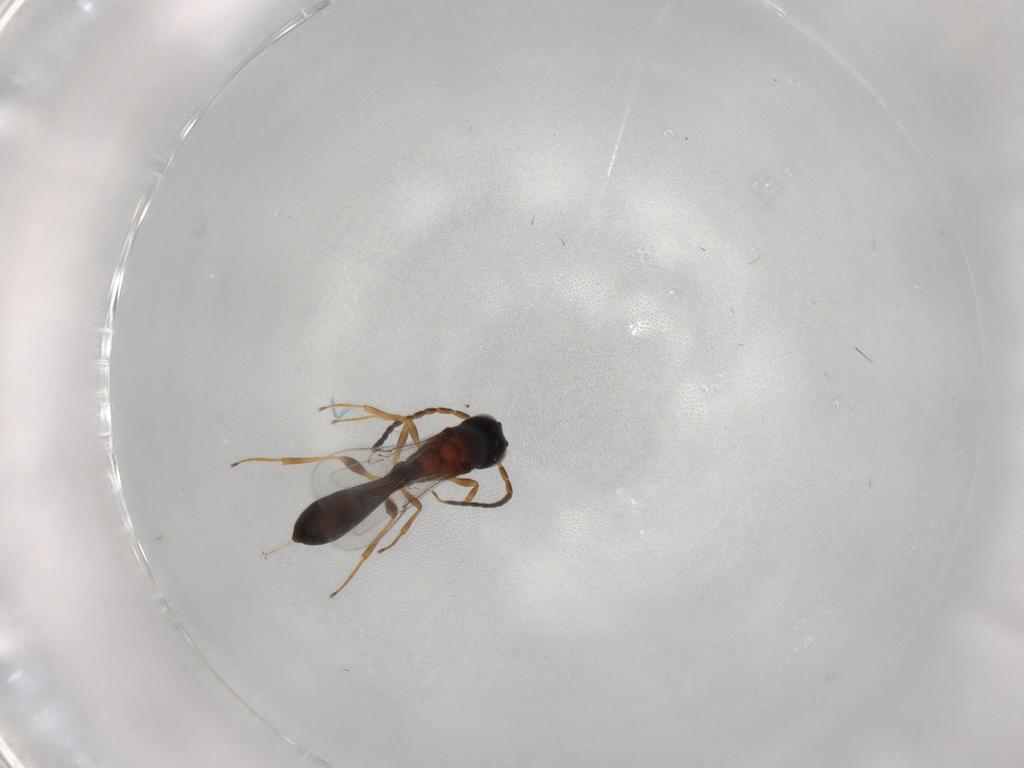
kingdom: Animalia
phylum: Arthropoda
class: Insecta
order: Hymenoptera
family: Scelionidae
